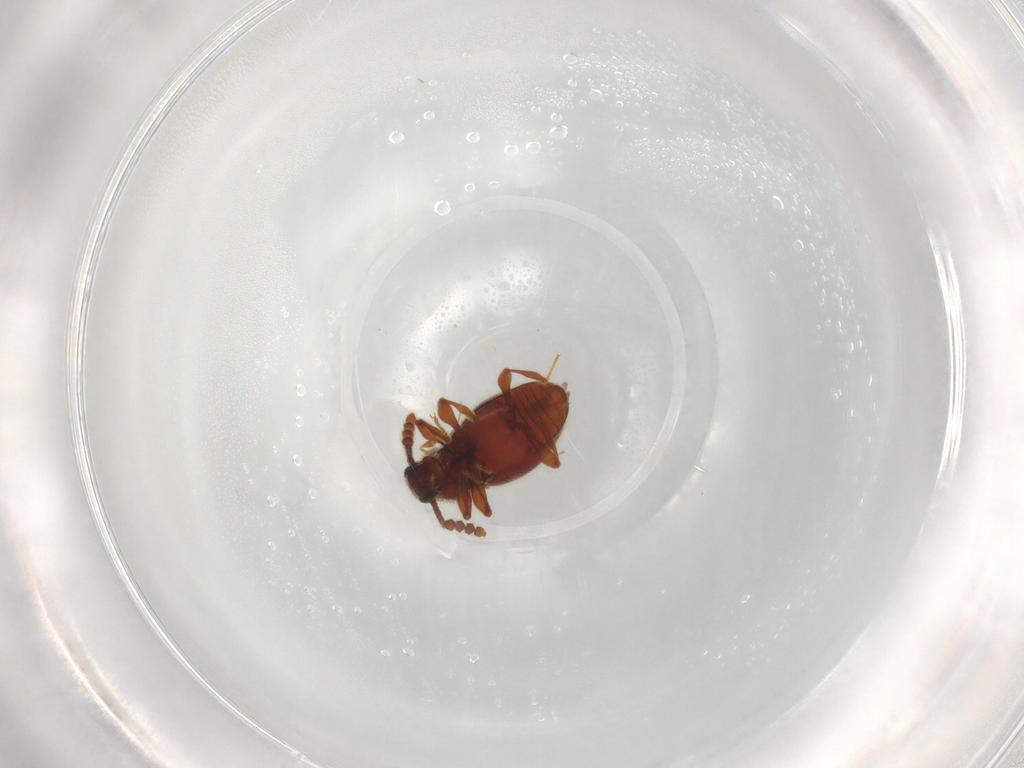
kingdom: Animalia
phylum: Arthropoda
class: Insecta
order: Coleoptera
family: Staphylinidae
